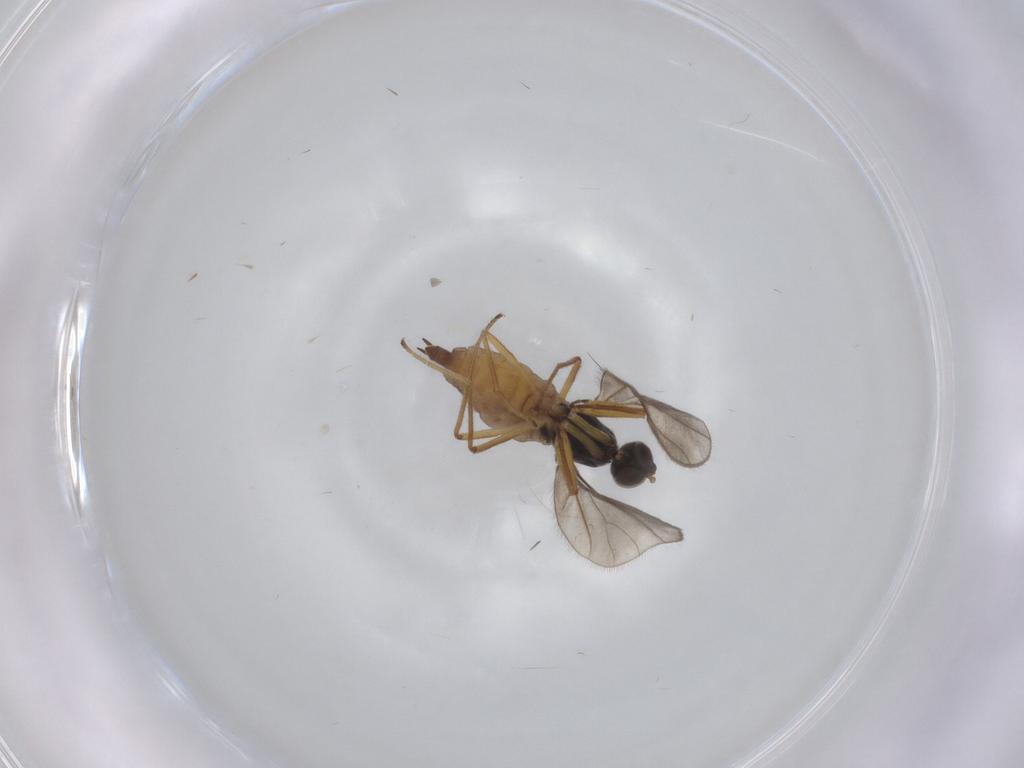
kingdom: Animalia
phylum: Arthropoda
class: Insecta
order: Diptera
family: Empididae
